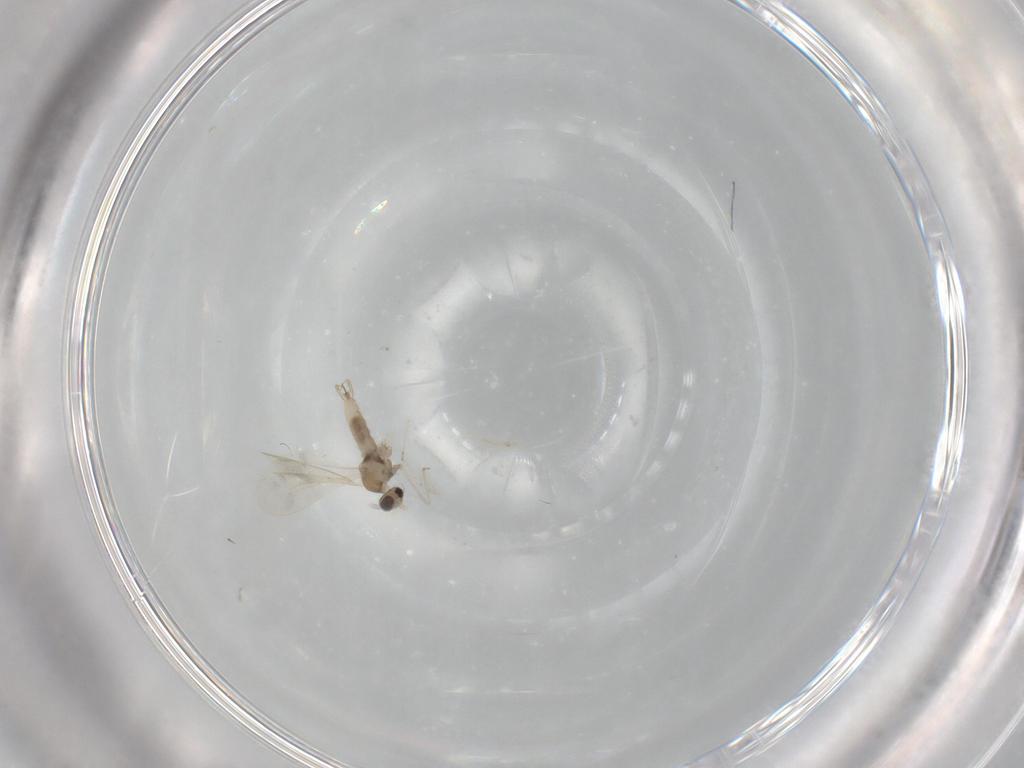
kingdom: Animalia
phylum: Arthropoda
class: Insecta
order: Diptera
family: Cecidomyiidae
